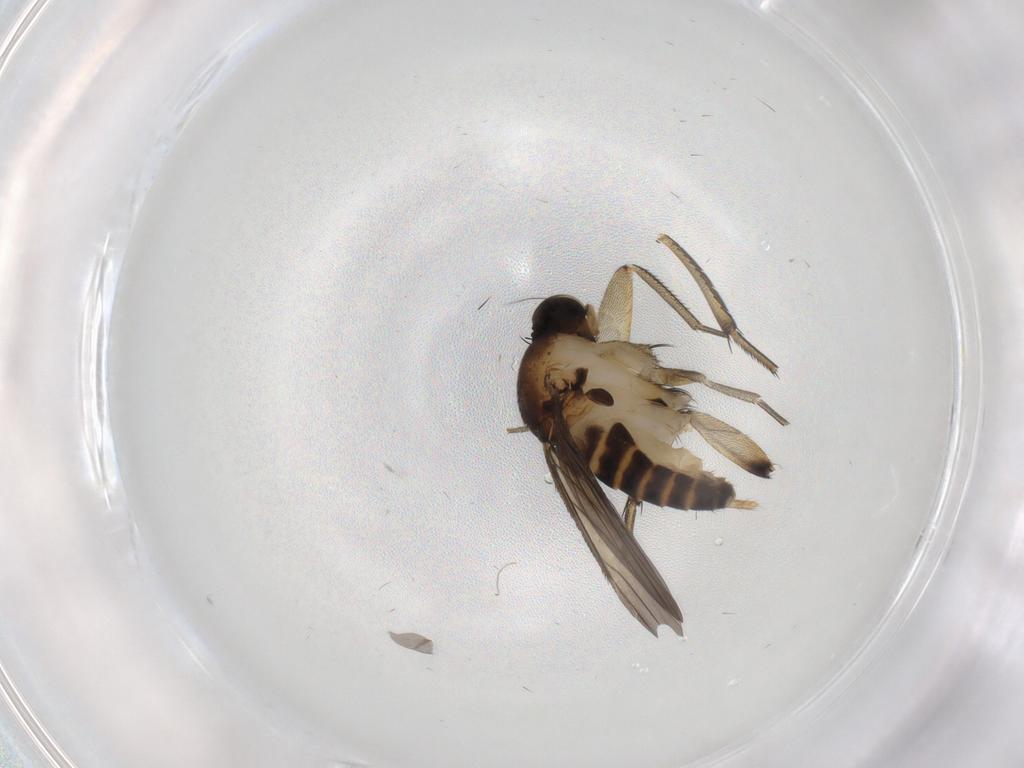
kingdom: Animalia
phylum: Arthropoda
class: Insecta
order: Diptera
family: Phoridae
